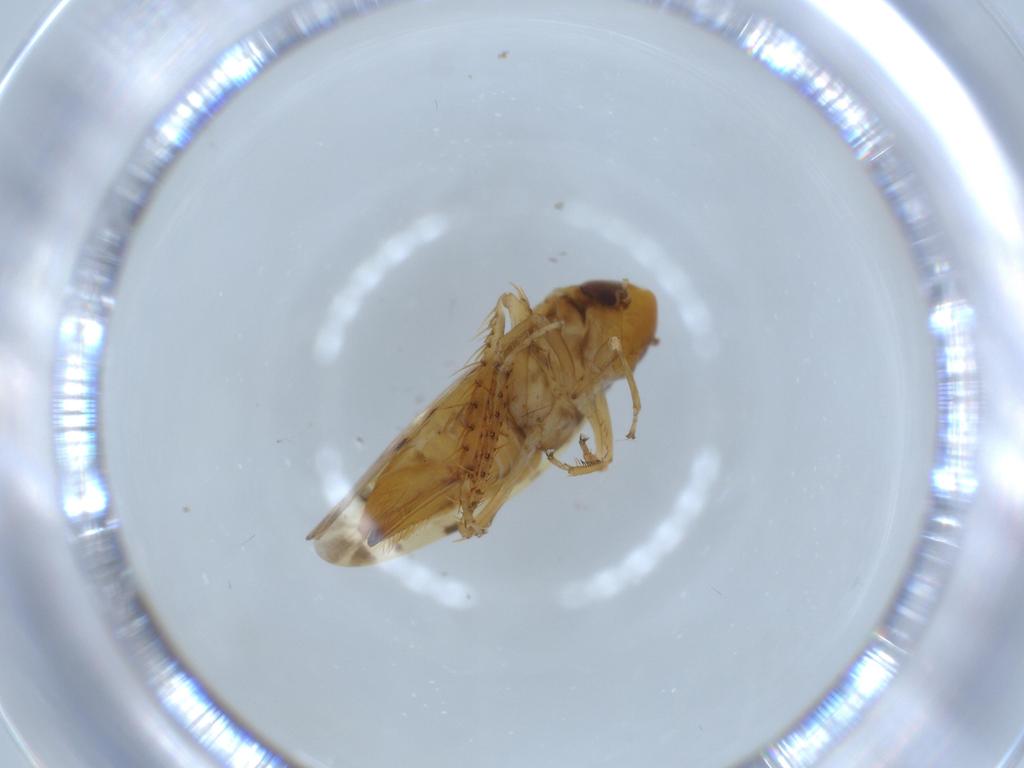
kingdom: Animalia
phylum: Arthropoda
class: Insecta
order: Hemiptera
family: Cicadellidae
